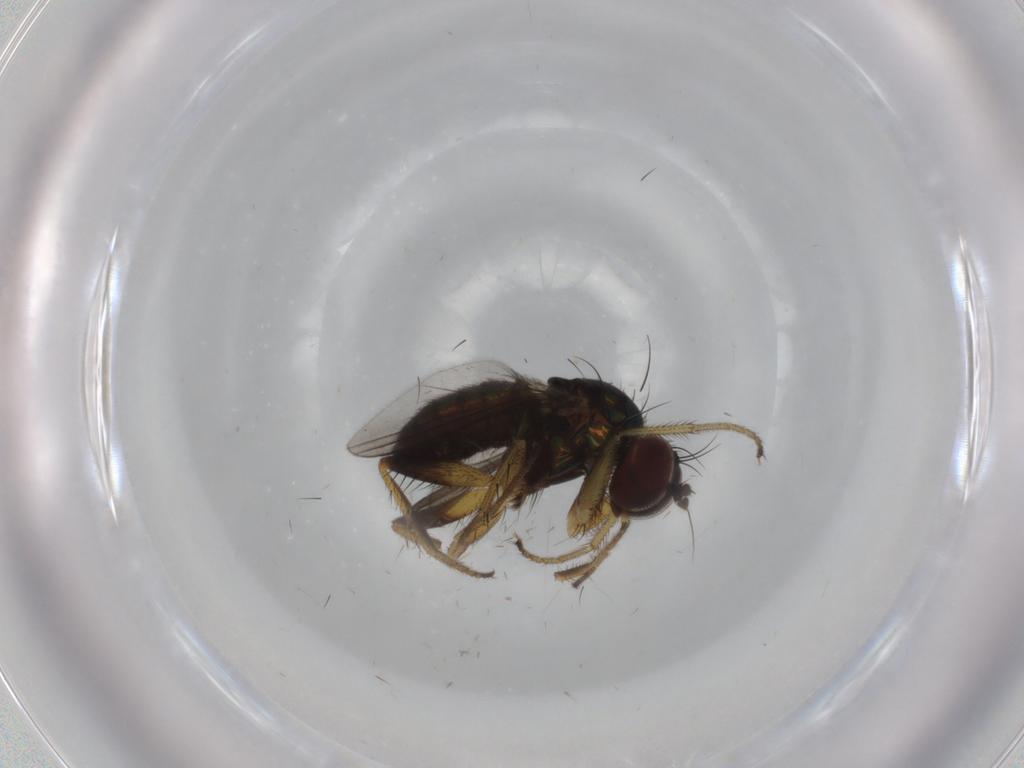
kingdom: Animalia
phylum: Arthropoda
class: Insecta
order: Diptera
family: Dolichopodidae
